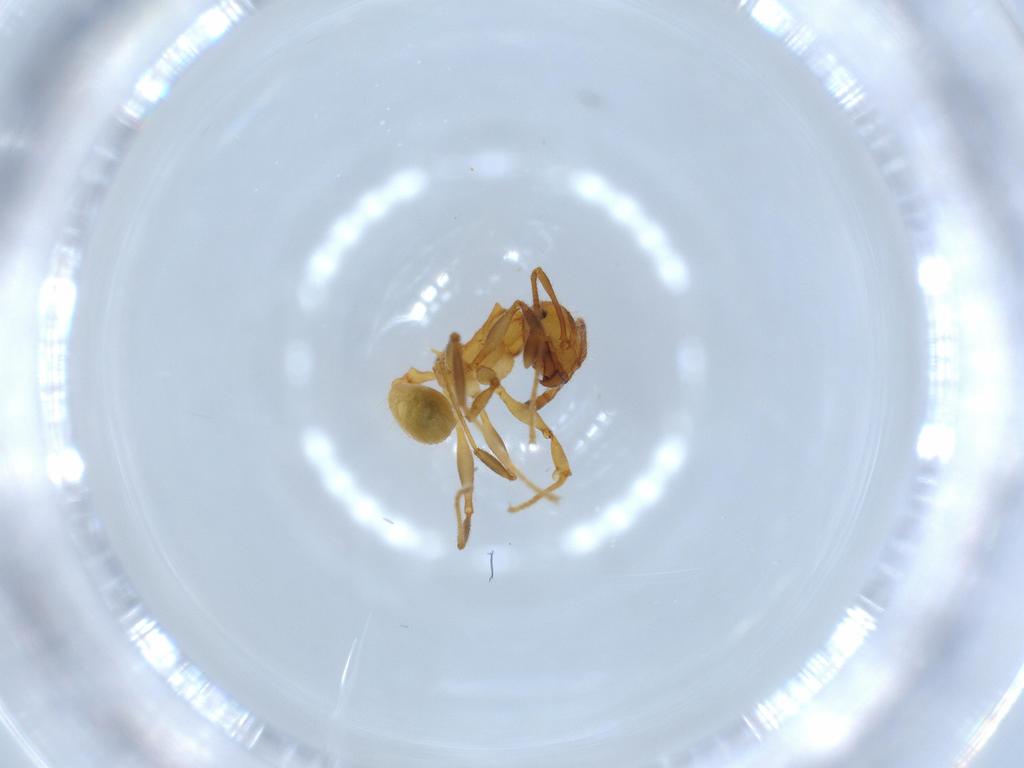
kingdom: Animalia
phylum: Arthropoda
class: Insecta
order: Hymenoptera
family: Formicidae
